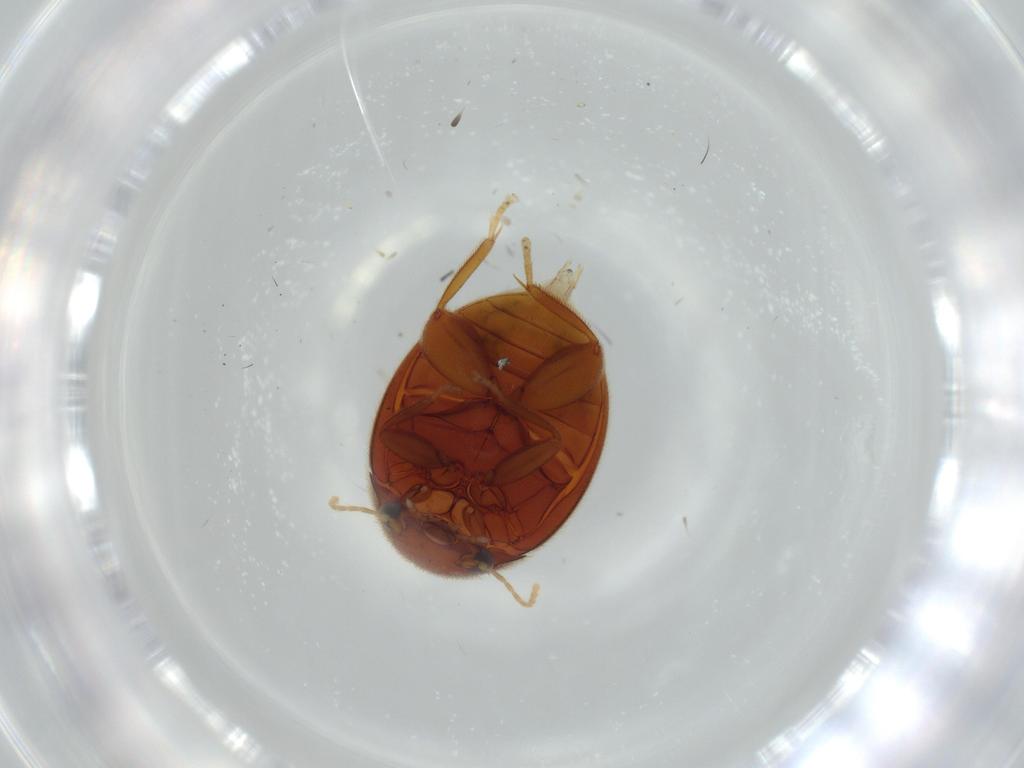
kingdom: Animalia
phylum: Arthropoda
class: Insecta
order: Coleoptera
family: Scirtidae
